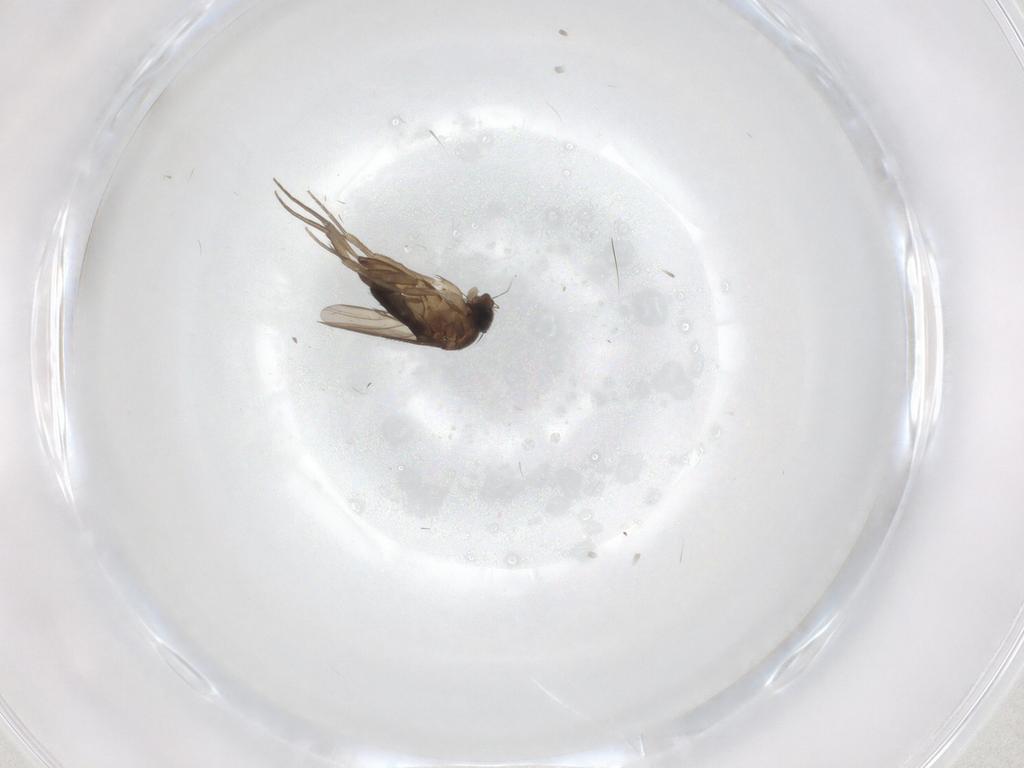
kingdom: Animalia
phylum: Arthropoda
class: Insecta
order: Diptera
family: Phoridae
